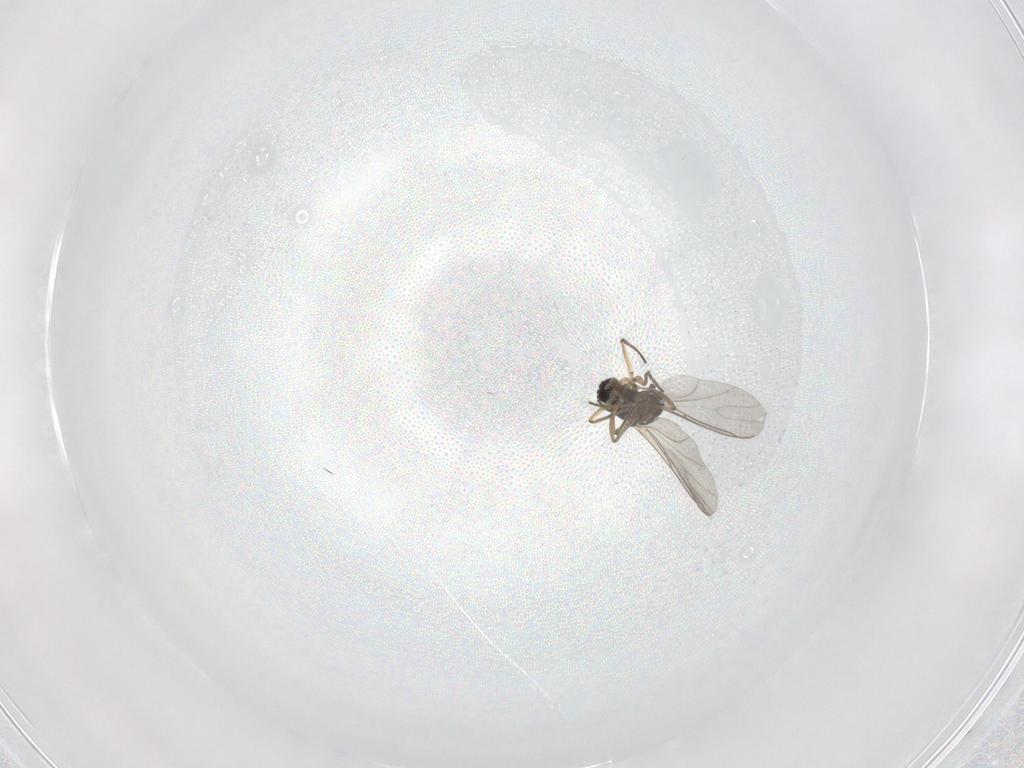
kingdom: Animalia
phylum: Arthropoda
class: Insecta
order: Diptera
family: Sciaridae
